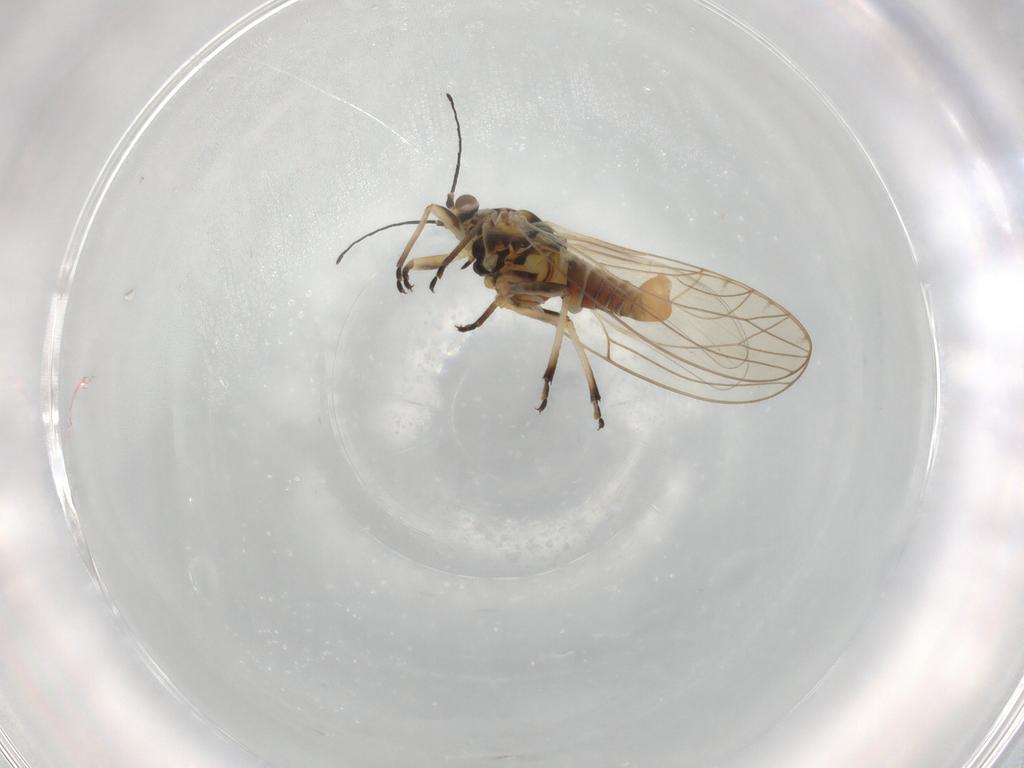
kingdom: Animalia
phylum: Arthropoda
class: Insecta
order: Hemiptera
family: Triozidae
